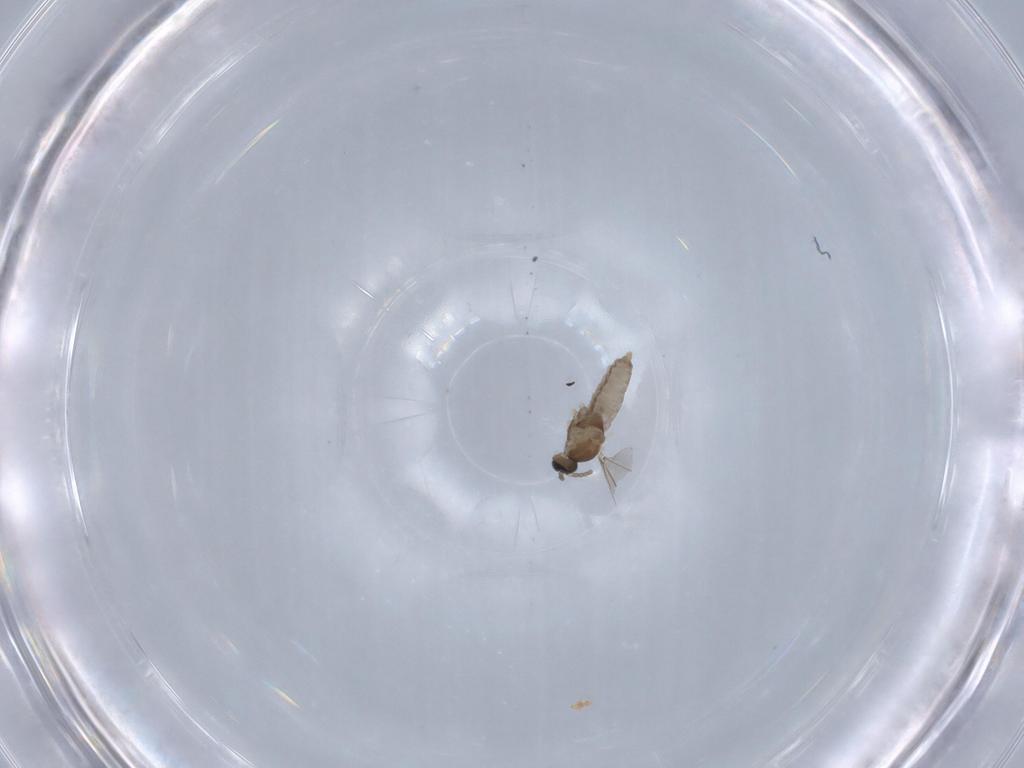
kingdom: Animalia
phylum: Arthropoda
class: Insecta
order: Diptera
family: Cecidomyiidae
